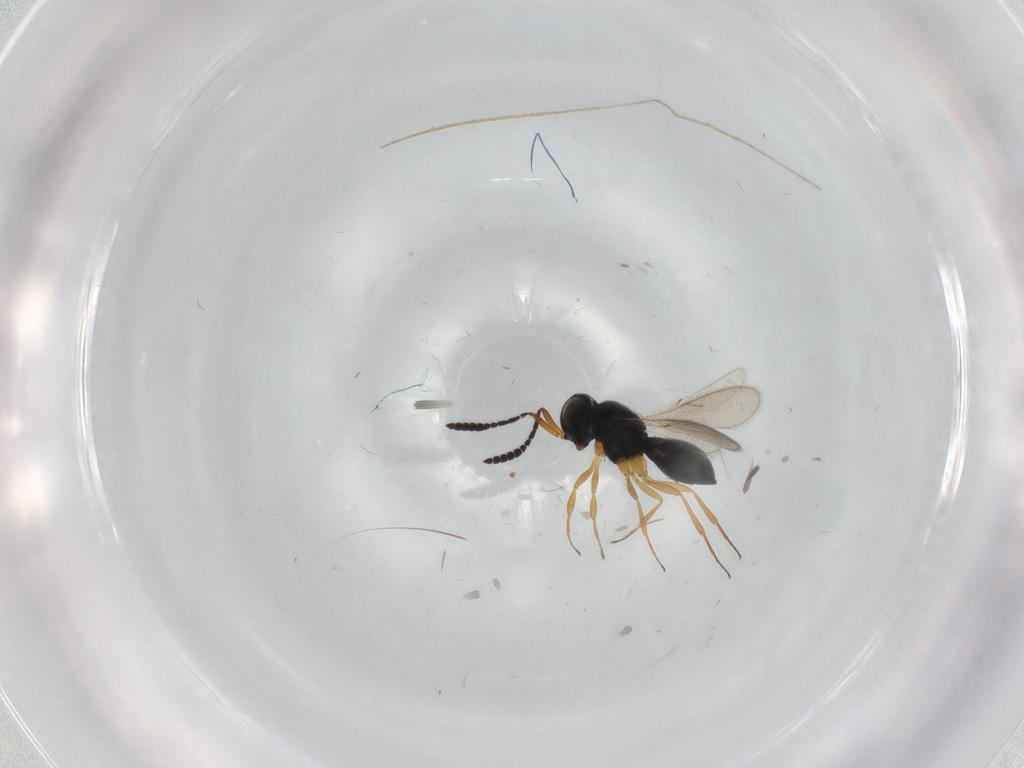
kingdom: Animalia
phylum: Arthropoda
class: Insecta
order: Hymenoptera
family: Scelionidae
